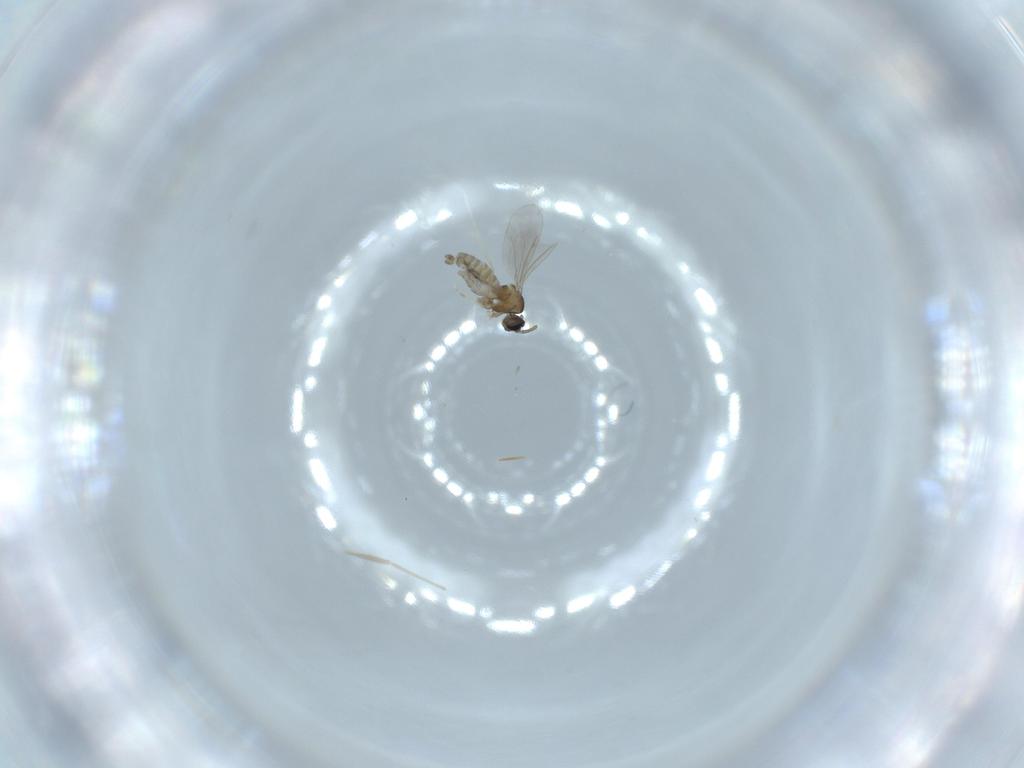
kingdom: Animalia
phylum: Arthropoda
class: Insecta
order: Diptera
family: Cecidomyiidae
